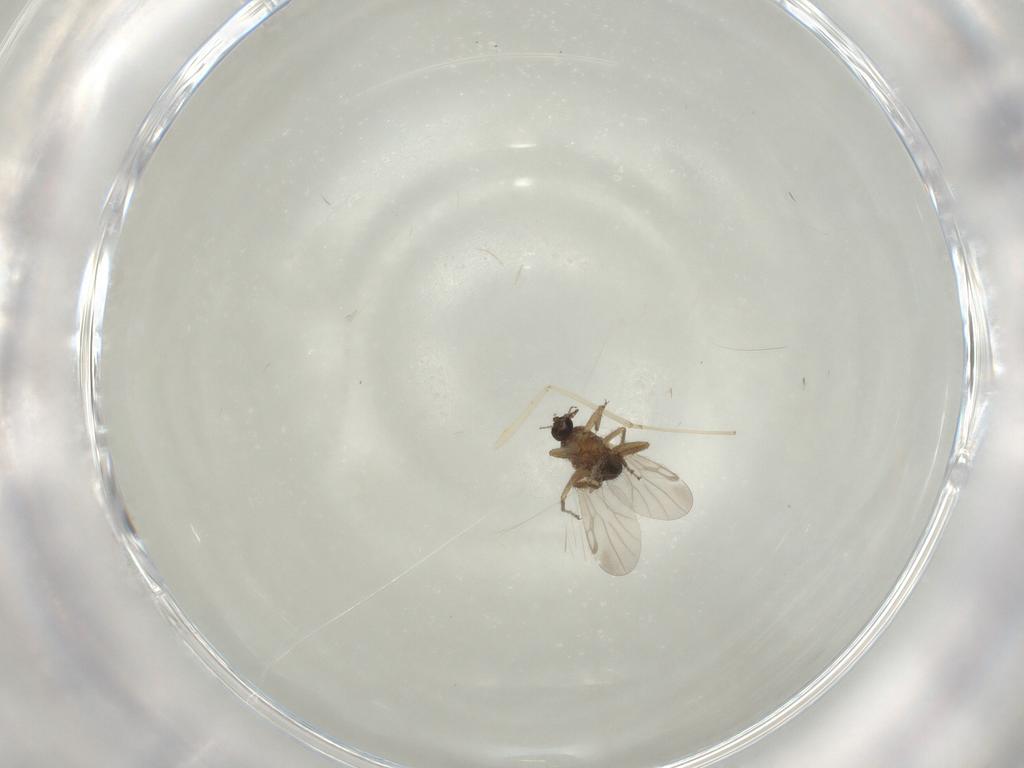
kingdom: Animalia
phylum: Arthropoda
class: Insecta
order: Diptera
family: Ceratopogonidae
